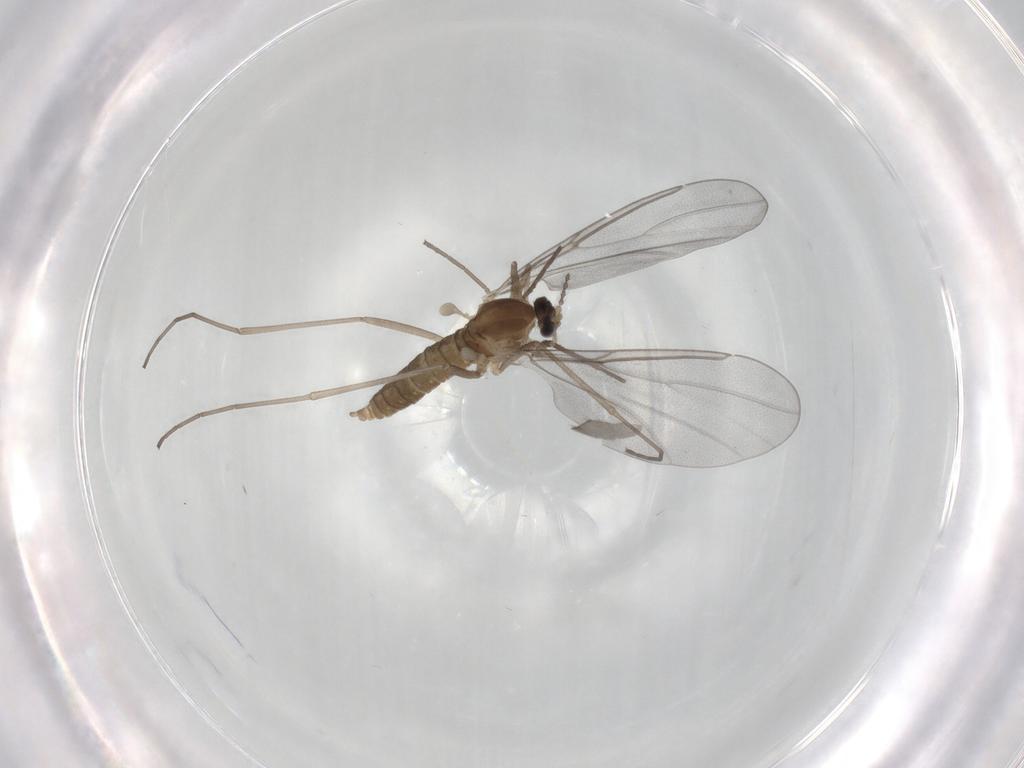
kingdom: Animalia
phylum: Arthropoda
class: Insecta
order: Diptera
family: Cecidomyiidae
